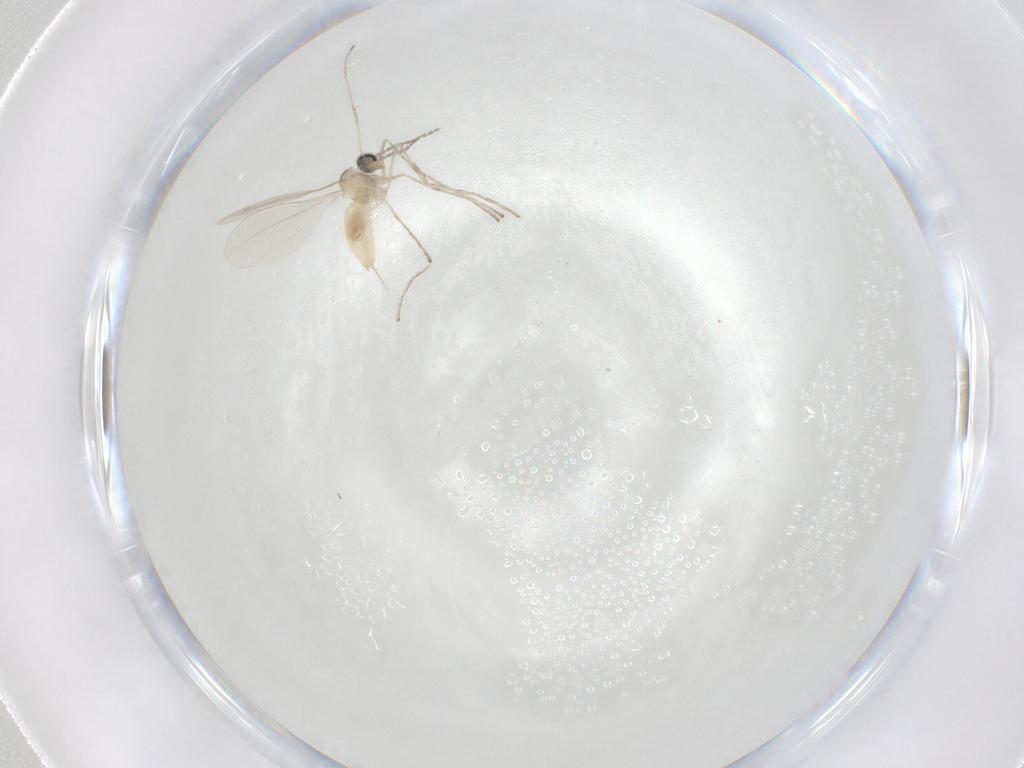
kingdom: Animalia
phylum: Arthropoda
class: Insecta
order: Diptera
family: Cecidomyiidae
